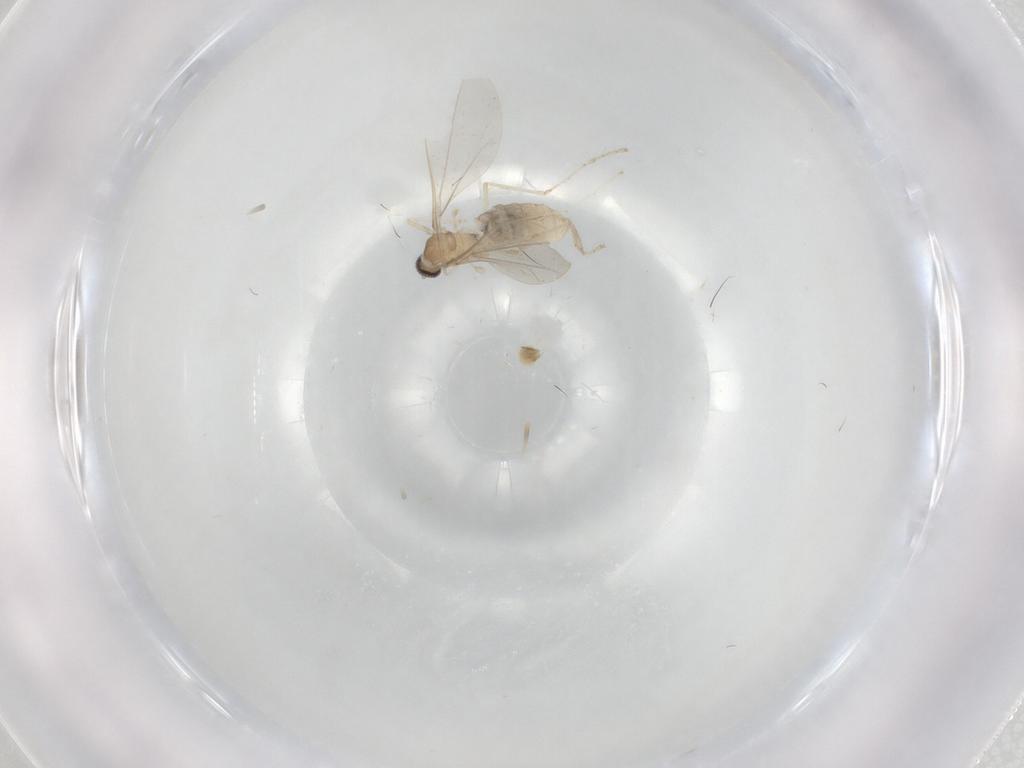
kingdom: Animalia
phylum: Arthropoda
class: Insecta
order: Diptera
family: Cecidomyiidae
